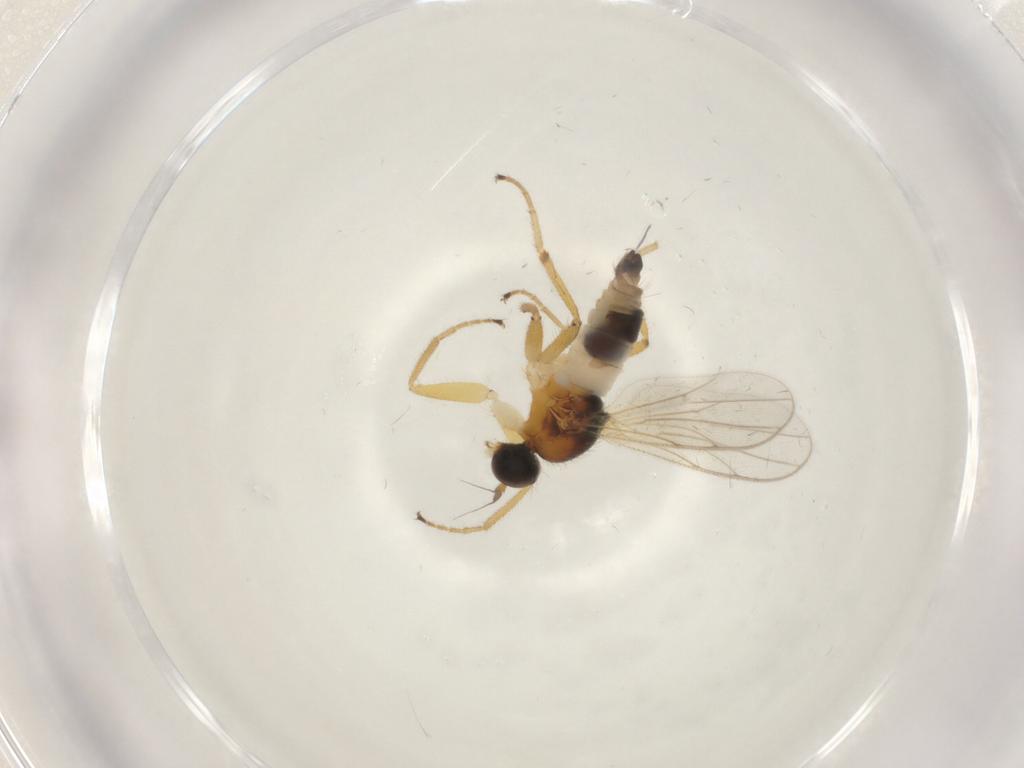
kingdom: Animalia
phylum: Arthropoda
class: Insecta
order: Diptera
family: Hybotidae
